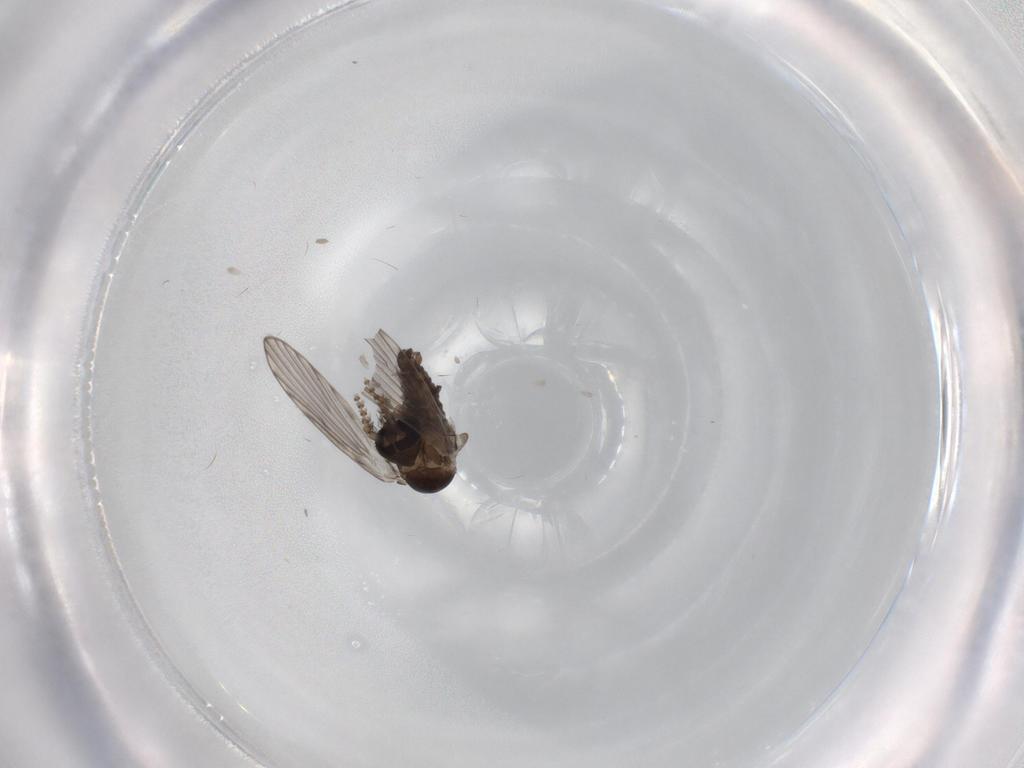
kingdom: Animalia
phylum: Arthropoda
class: Insecta
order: Diptera
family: Psychodidae
